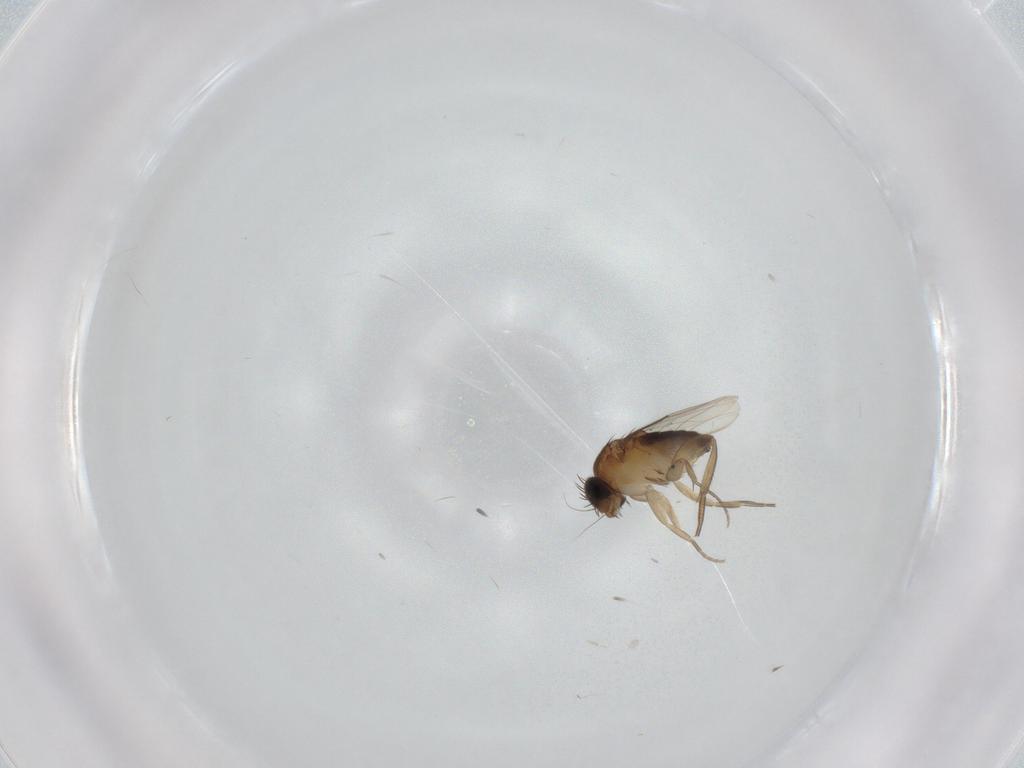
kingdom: Animalia
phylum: Arthropoda
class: Insecta
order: Diptera
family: Phoridae
